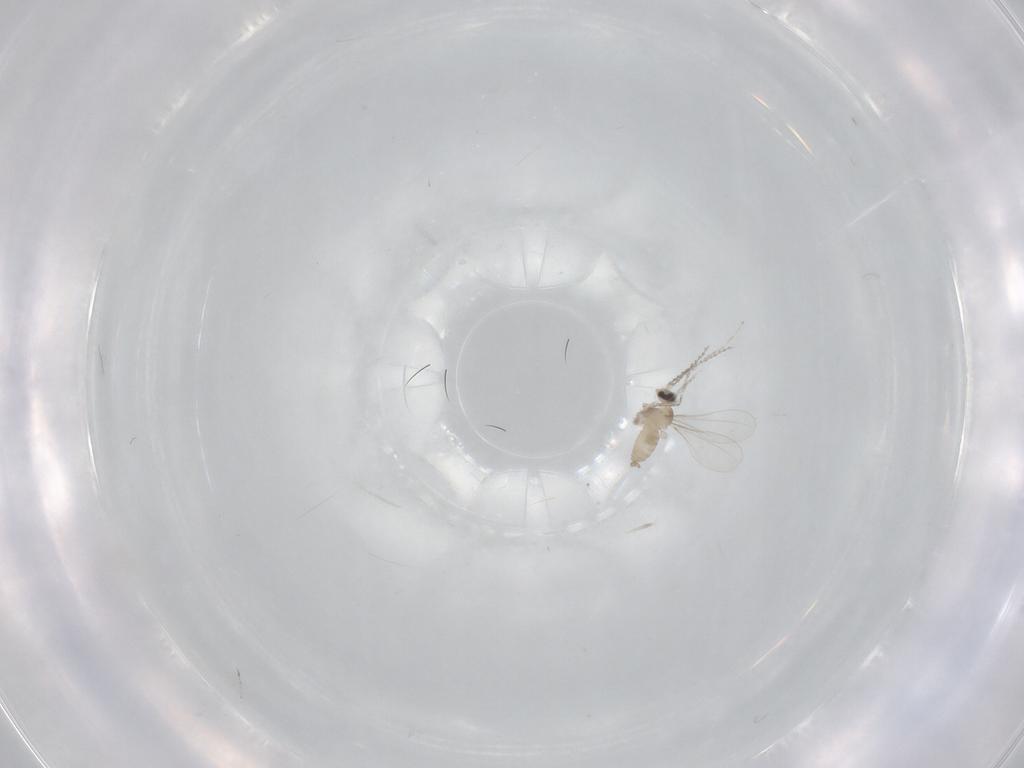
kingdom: Animalia
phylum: Arthropoda
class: Insecta
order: Diptera
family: Cecidomyiidae
